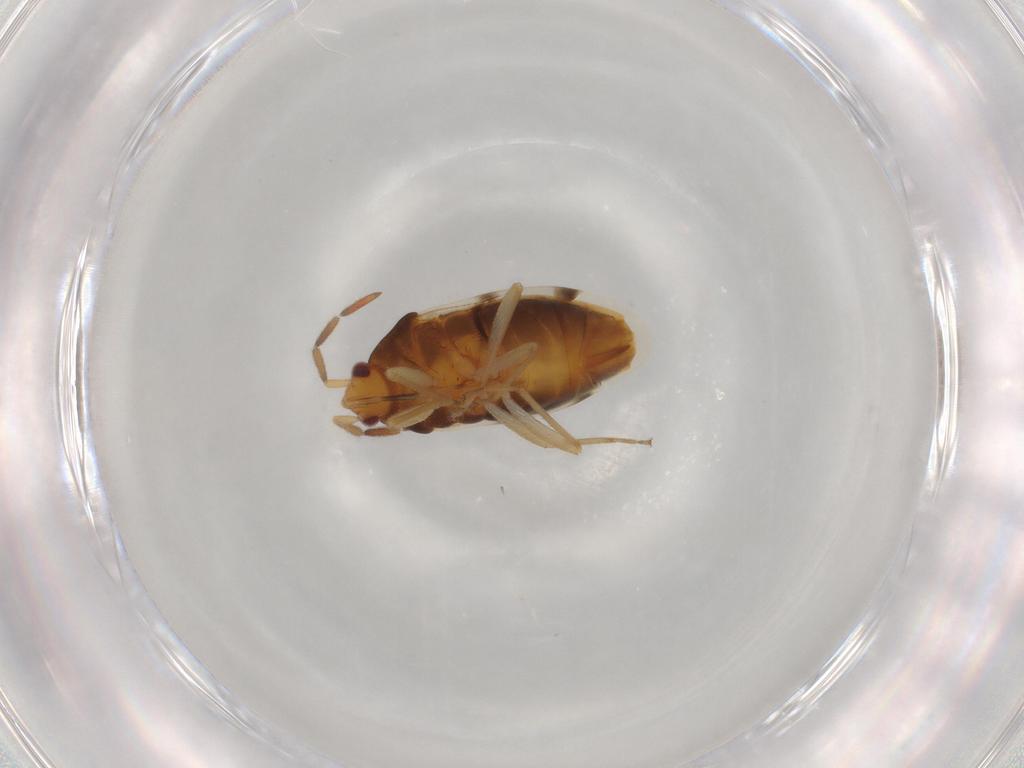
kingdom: Animalia
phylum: Arthropoda
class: Insecta
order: Hemiptera
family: Rhyparochromidae
